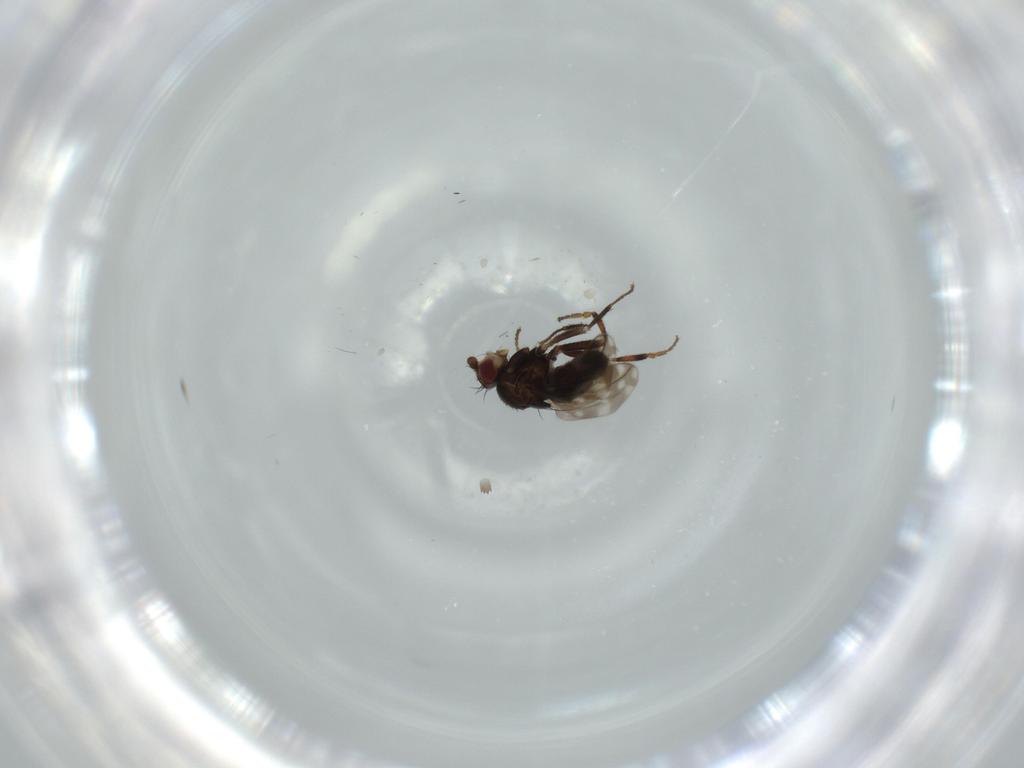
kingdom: Animalia
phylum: Arthropoda
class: Insecta
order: Diptera
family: Sphaeroceridae
